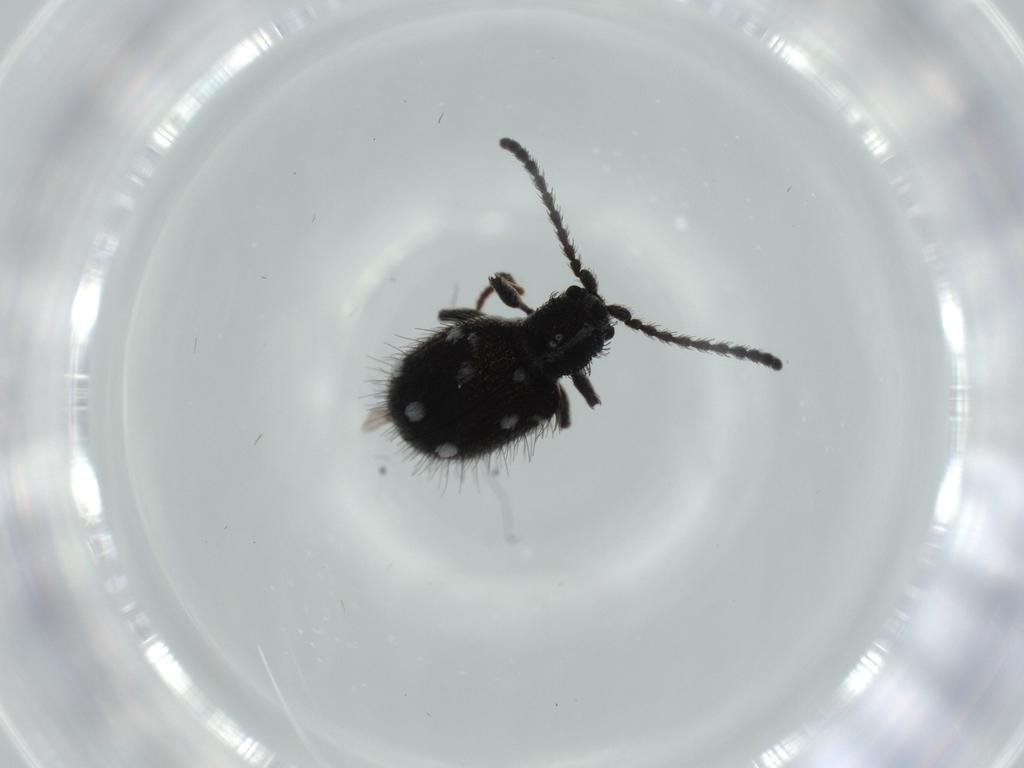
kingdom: Animalia
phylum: Arthropoda
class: Insecta
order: Coleoptera
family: Ptinidae
